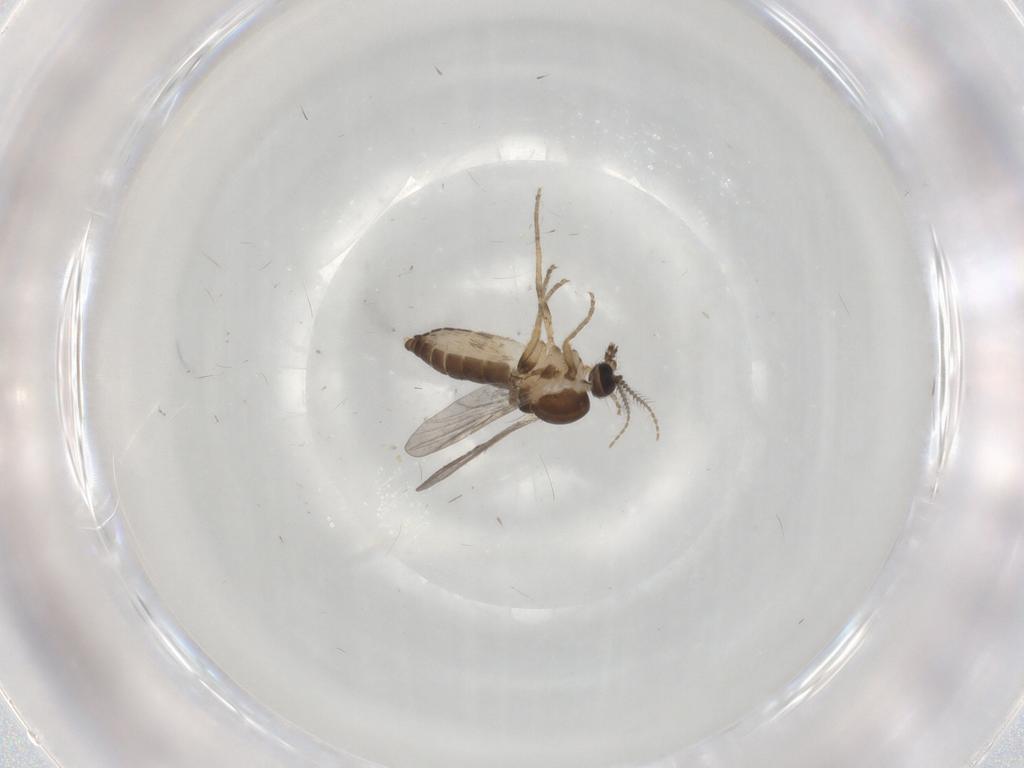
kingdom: Animalia
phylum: Arthropoda
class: Insecta
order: Diptera
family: Ceratopogonidae
